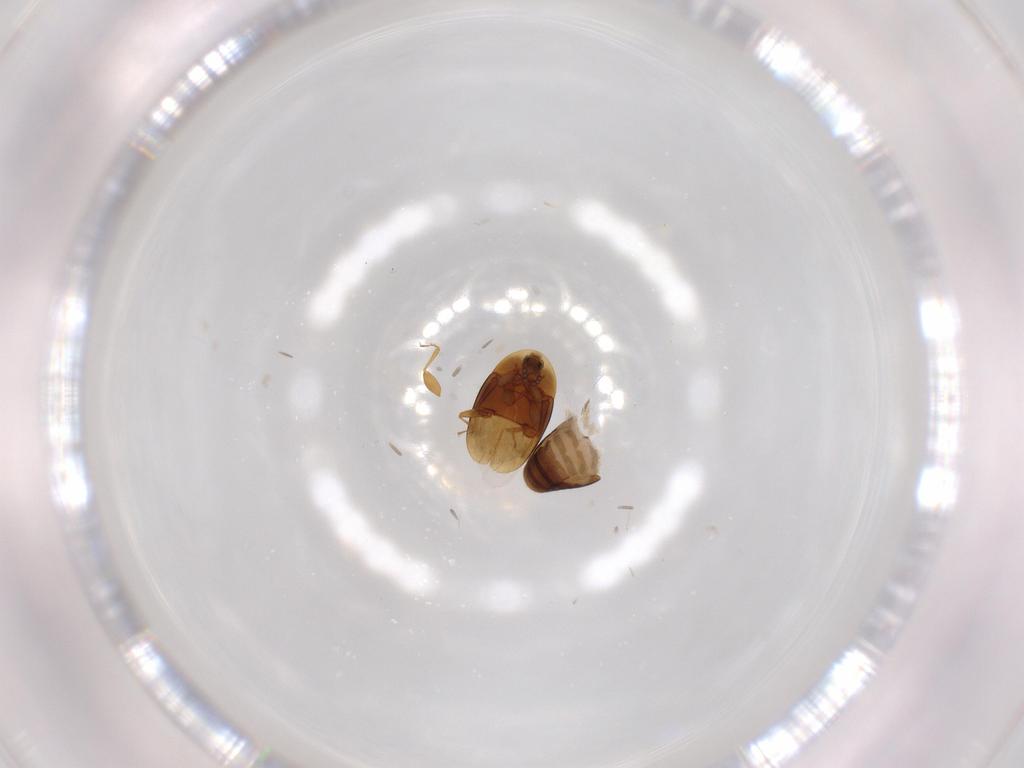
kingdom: Animalia
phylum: Arthropoda
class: Insecta
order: Coleoptera
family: Corylophidae
